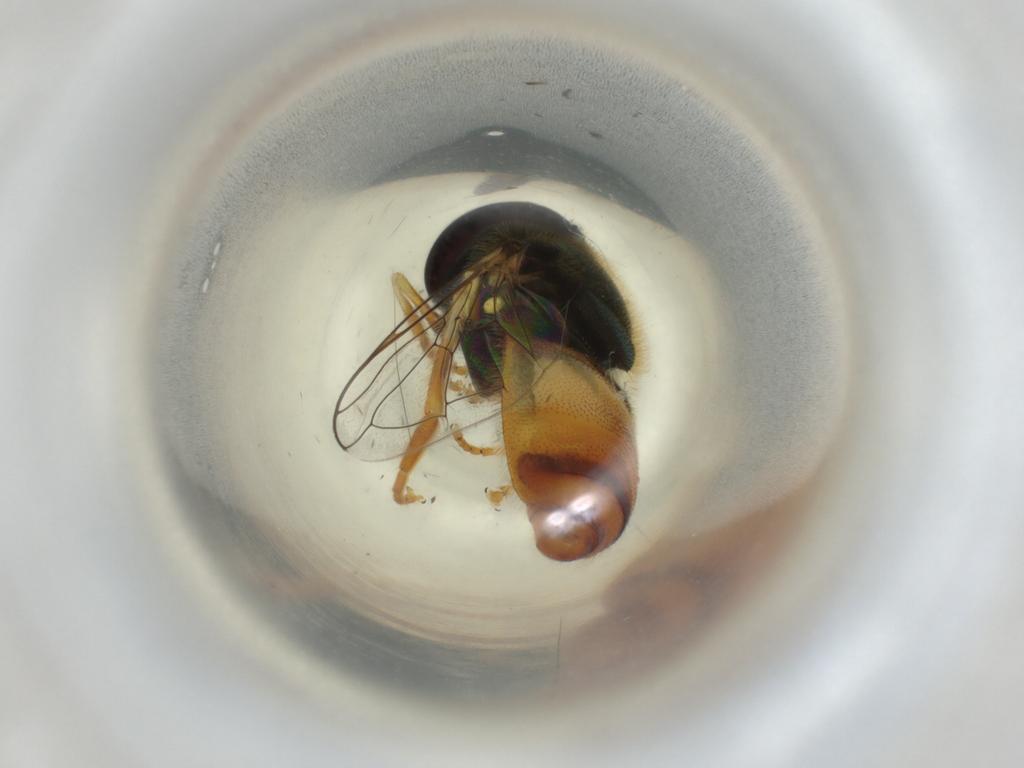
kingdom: Animalia
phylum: Arthropoda
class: Insecta
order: Diptera
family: Syrphidae
